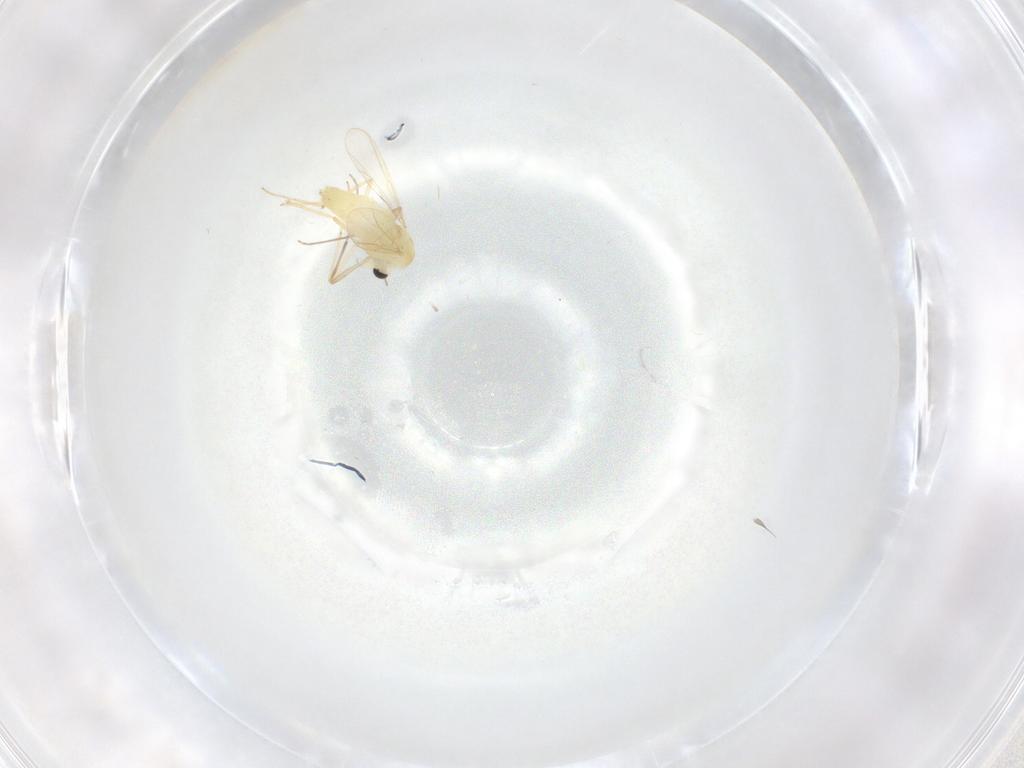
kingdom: Animalia
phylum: Arthropoda
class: Insecta
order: Diptera
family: Chironomidae
